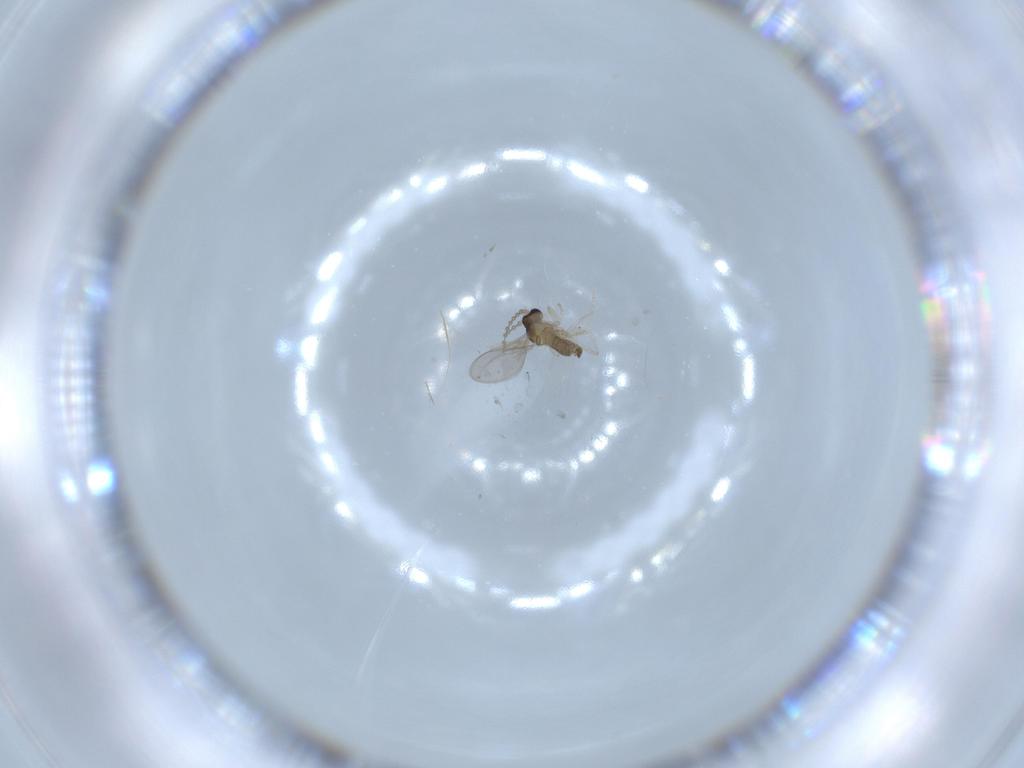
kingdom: Animalia
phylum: Arthropoda
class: Insecta
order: Diptera
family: Cecidomyiidae
